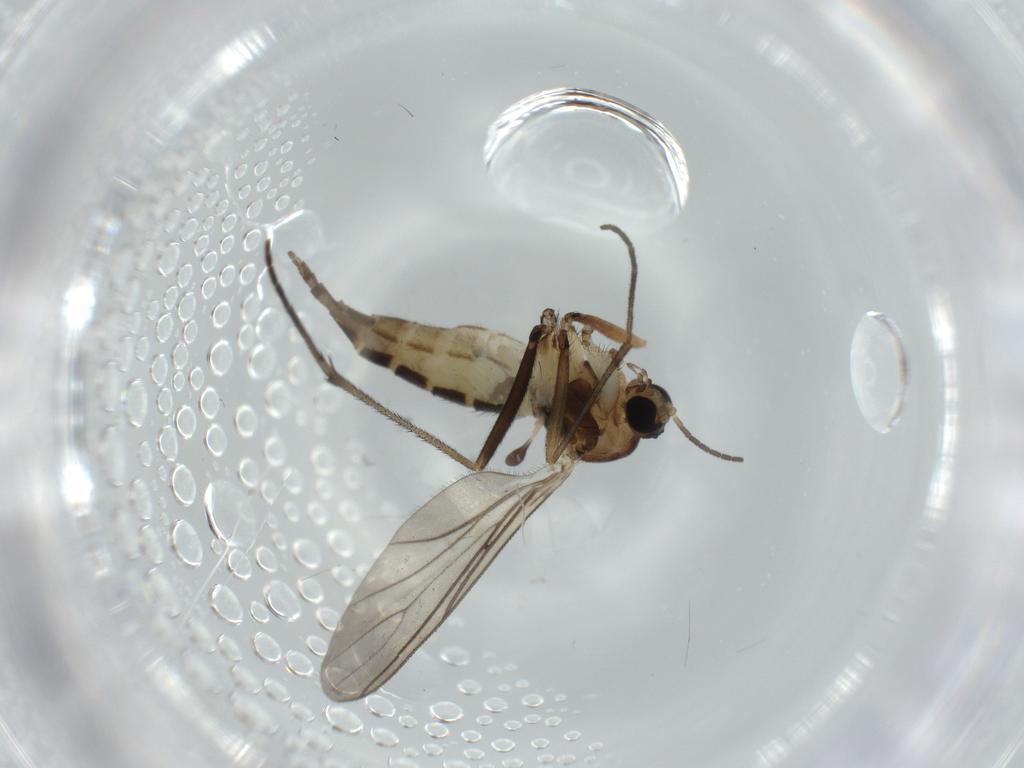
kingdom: Animalia
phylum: Arthropoda
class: Insecta
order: Diptera
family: Sciaridae
